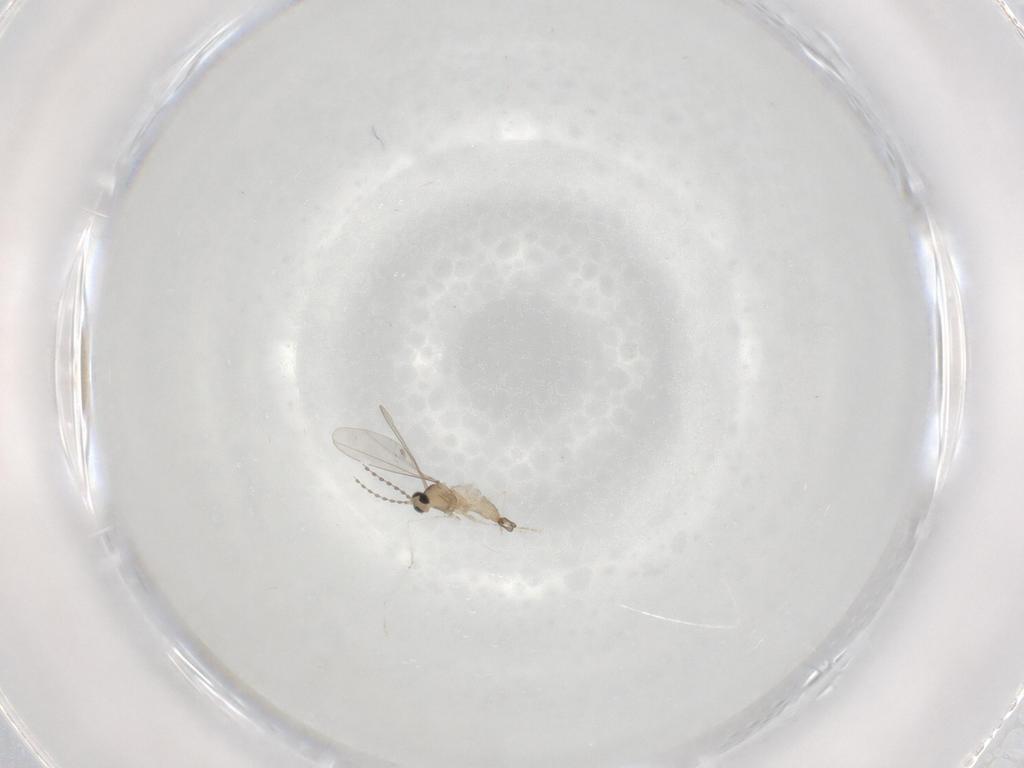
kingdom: Animalia
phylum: Arthropoda
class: Insecta
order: Diptera
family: Cecidomyiidae
